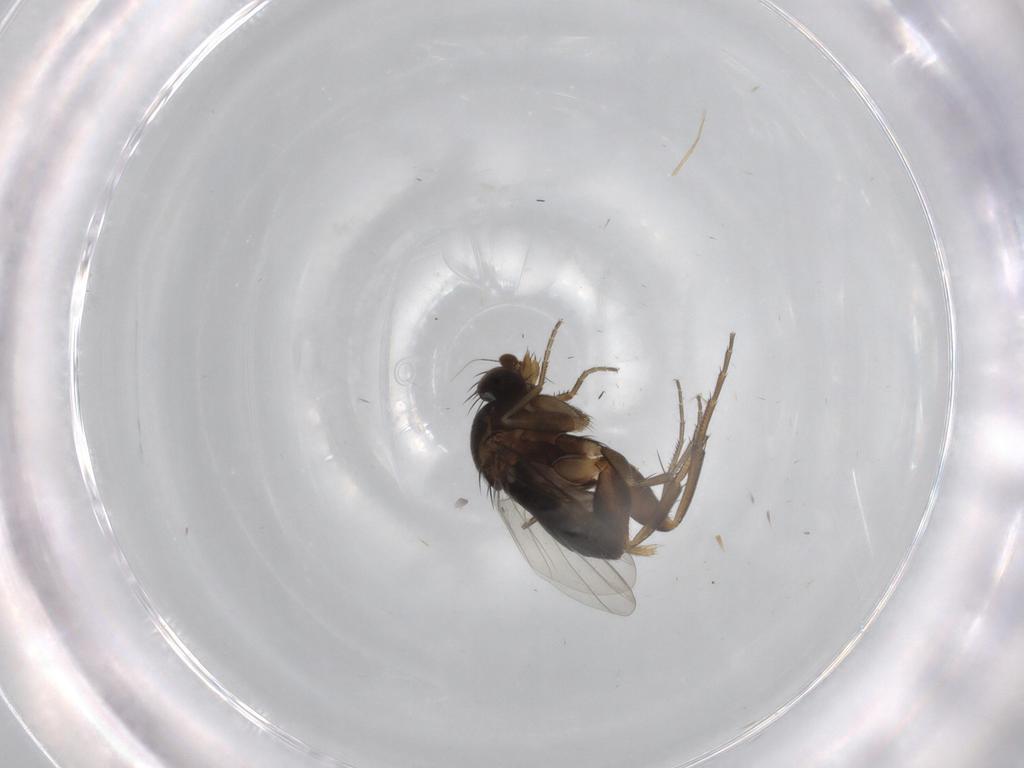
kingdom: Animalia
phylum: Arthropoda
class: Insecta
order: Diptera
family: Phoridae
